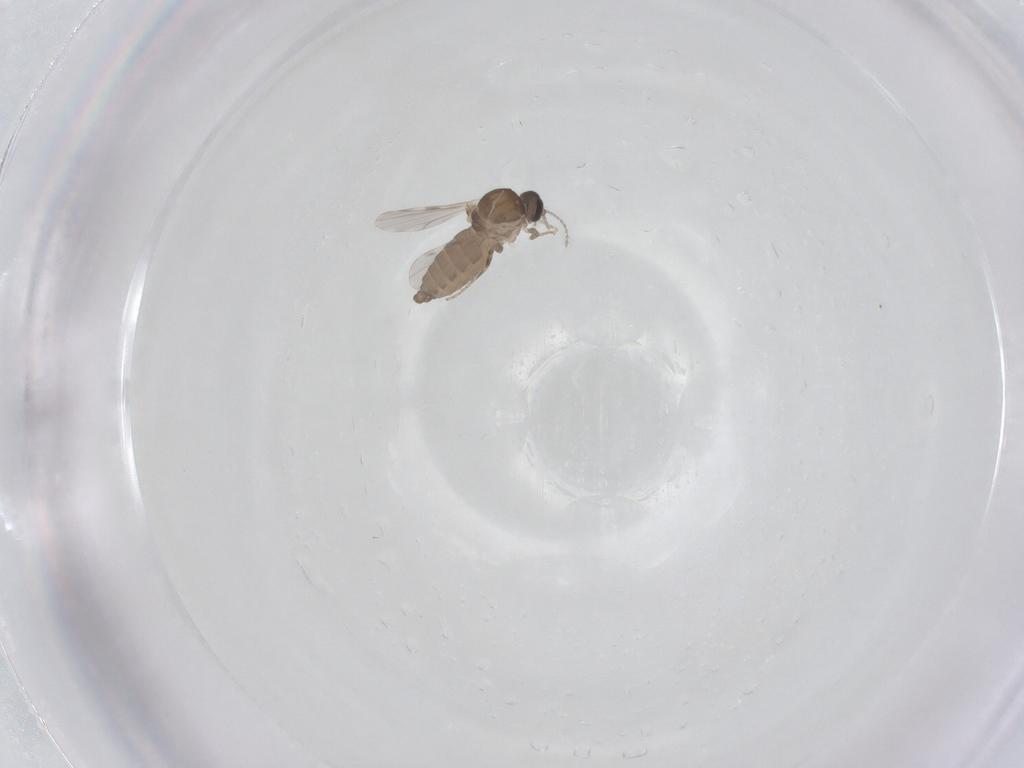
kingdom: Animalia
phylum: Arthropoda
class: Insecta
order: Diptera
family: Ceratopogonidae
